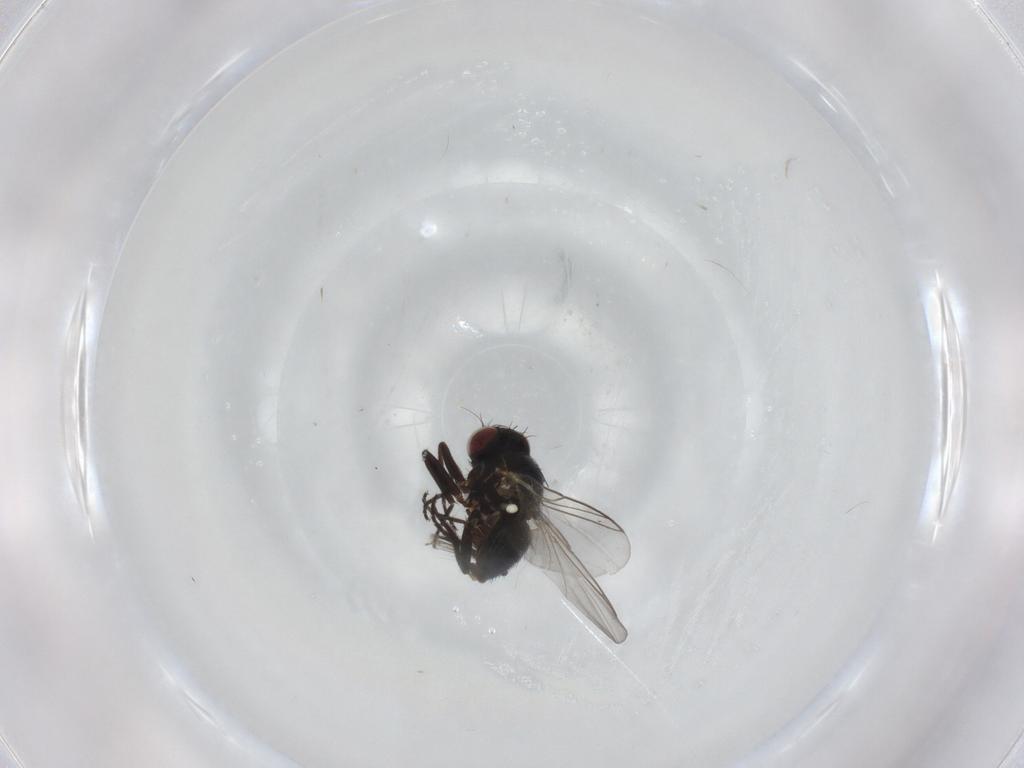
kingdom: Animalia
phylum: Arthropoda
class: Insecta
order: Diptera
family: Ceratopogonidae
